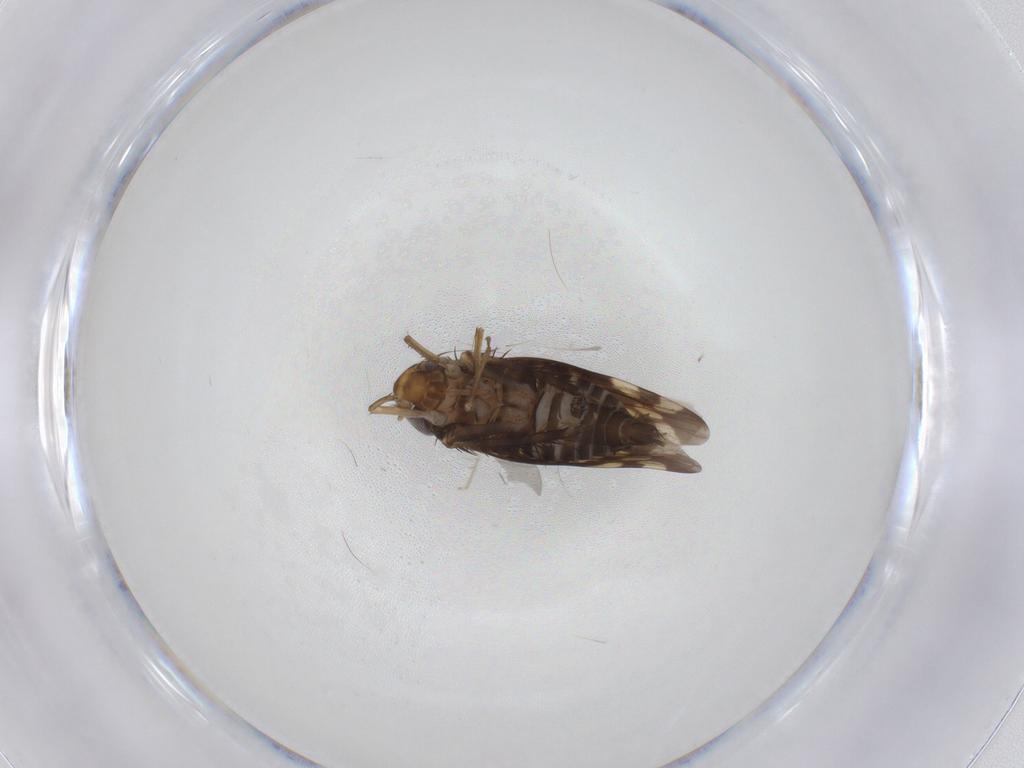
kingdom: Animalia
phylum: Arthropoda
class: Insecta
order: Hemiptera
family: Cicadellidae
